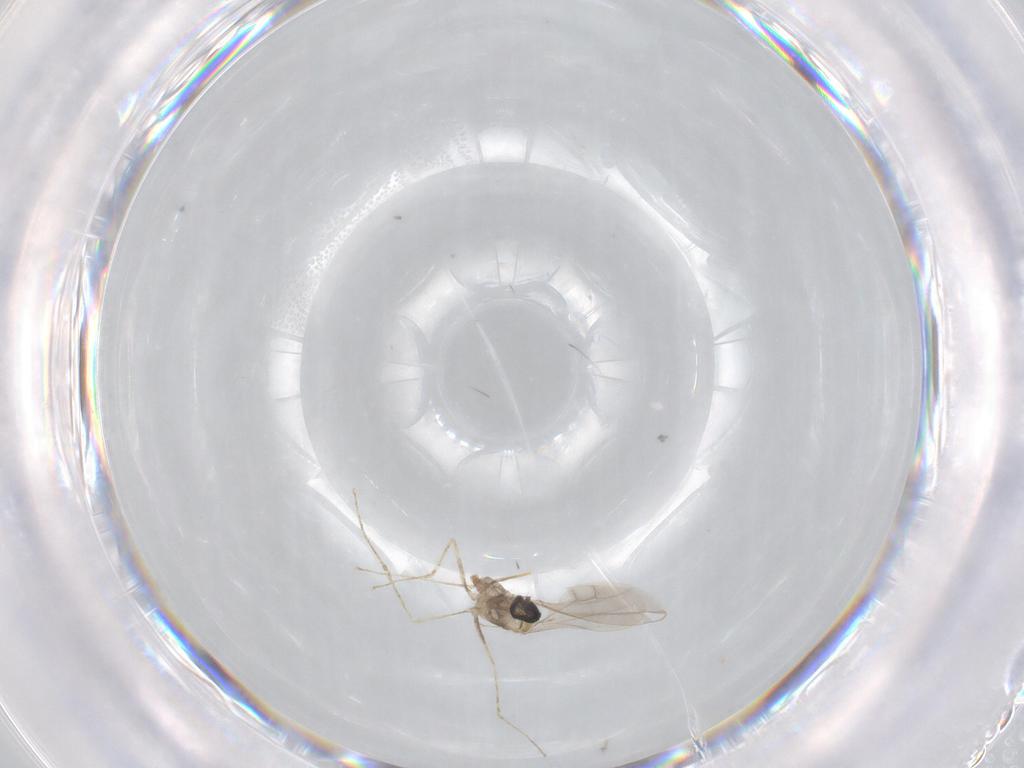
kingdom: Animalia
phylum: Arthropoda
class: Insecta
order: Diptera
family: Cecidomyiidae
